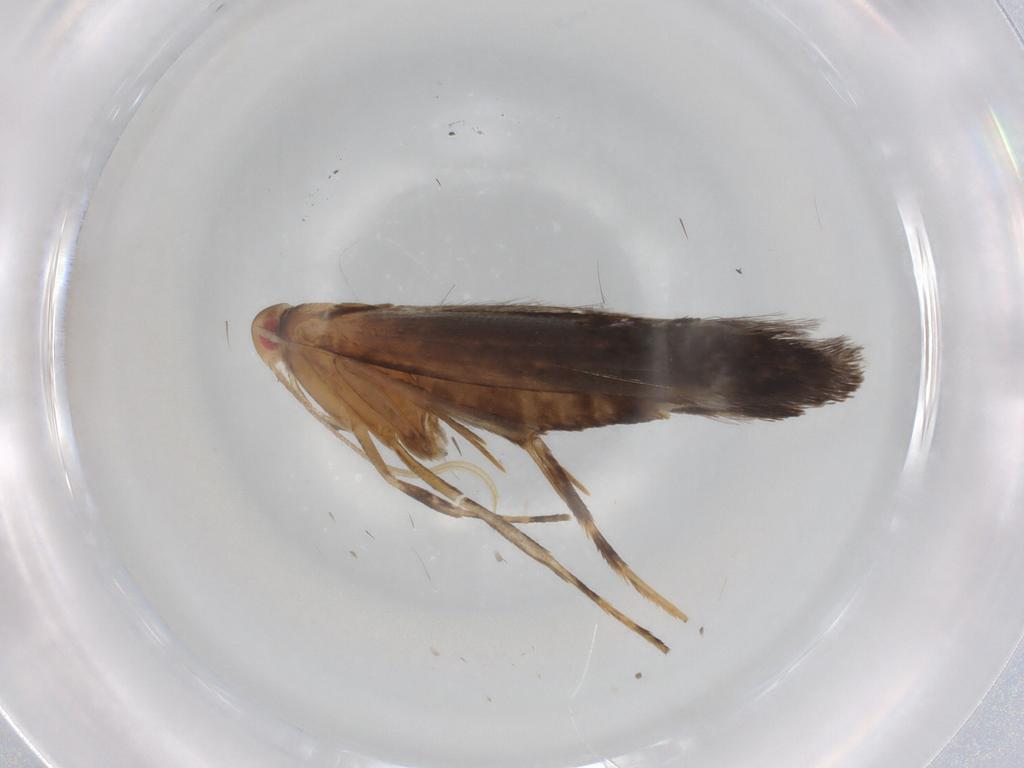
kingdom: Animalia
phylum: Arthropoda
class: Insecta
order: Lepidoptera
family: Cosmopterigidae
